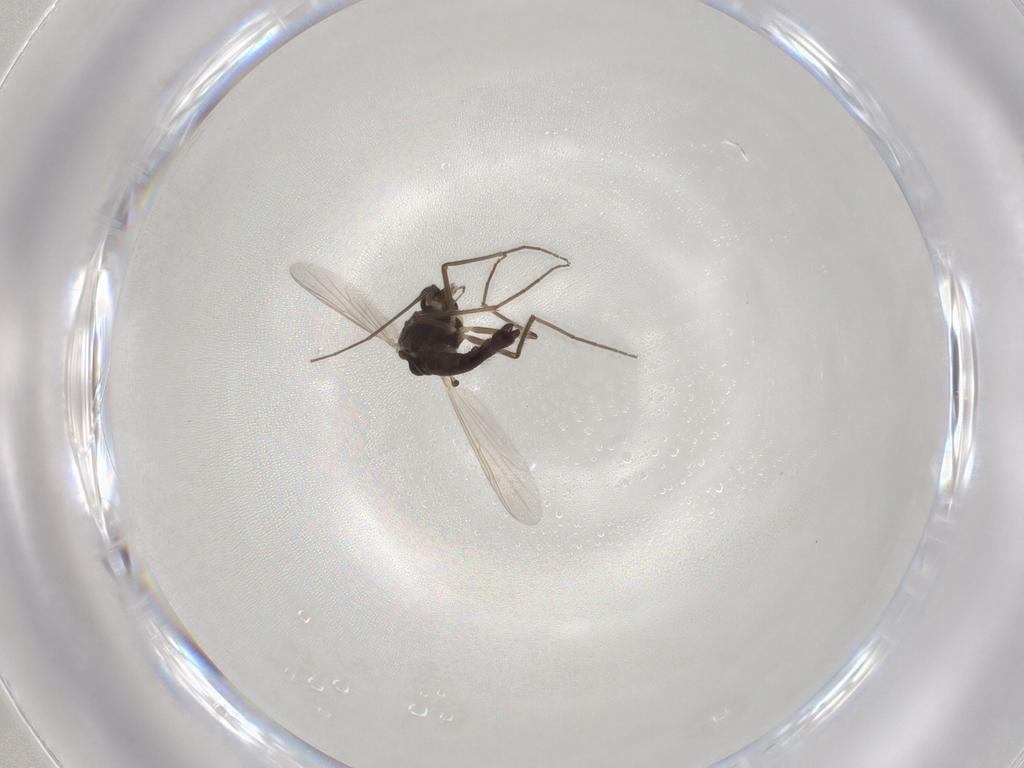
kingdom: Animalia
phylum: Arthropoda
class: Insecta
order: Diptera
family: Chironomidae
